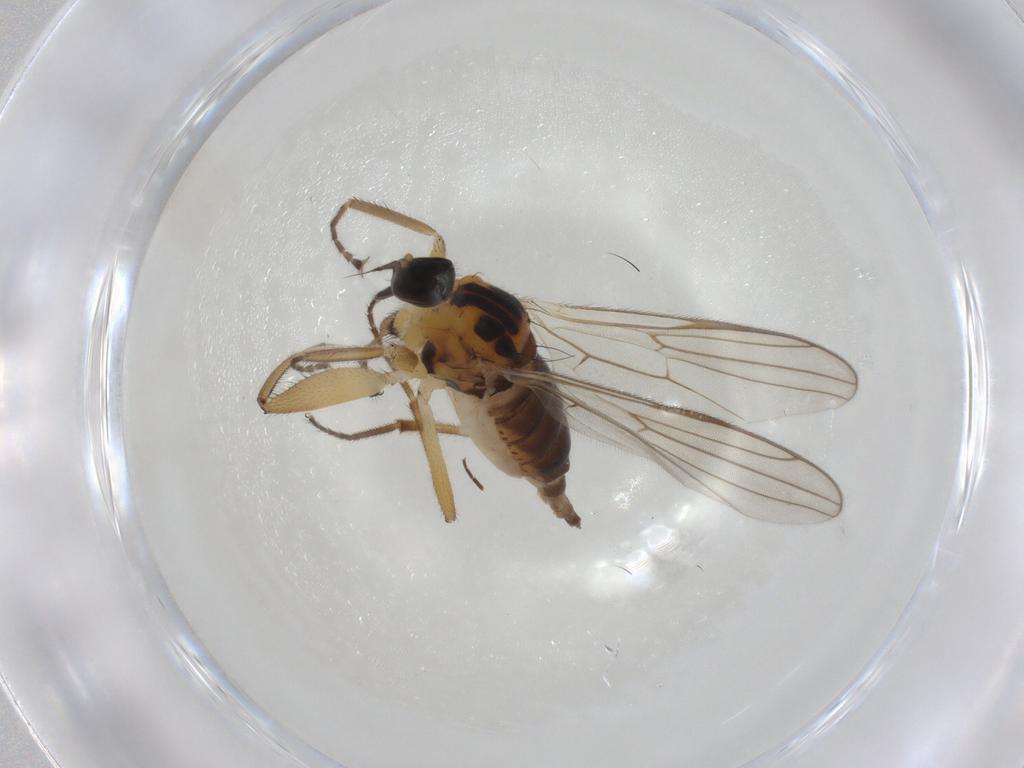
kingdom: Animalia
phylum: Arthropoda
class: Insecta
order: Diptera
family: Hybotidae
